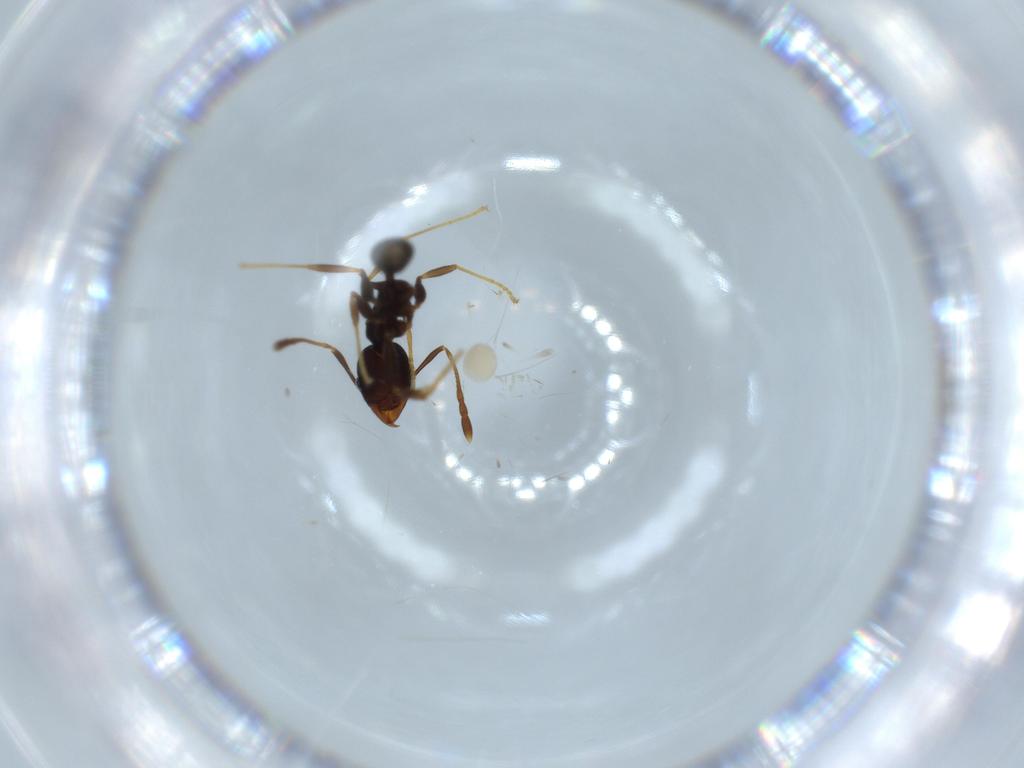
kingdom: Animalia
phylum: Arthropoda
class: Insecta
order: Hymenoptera
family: Formicidae
